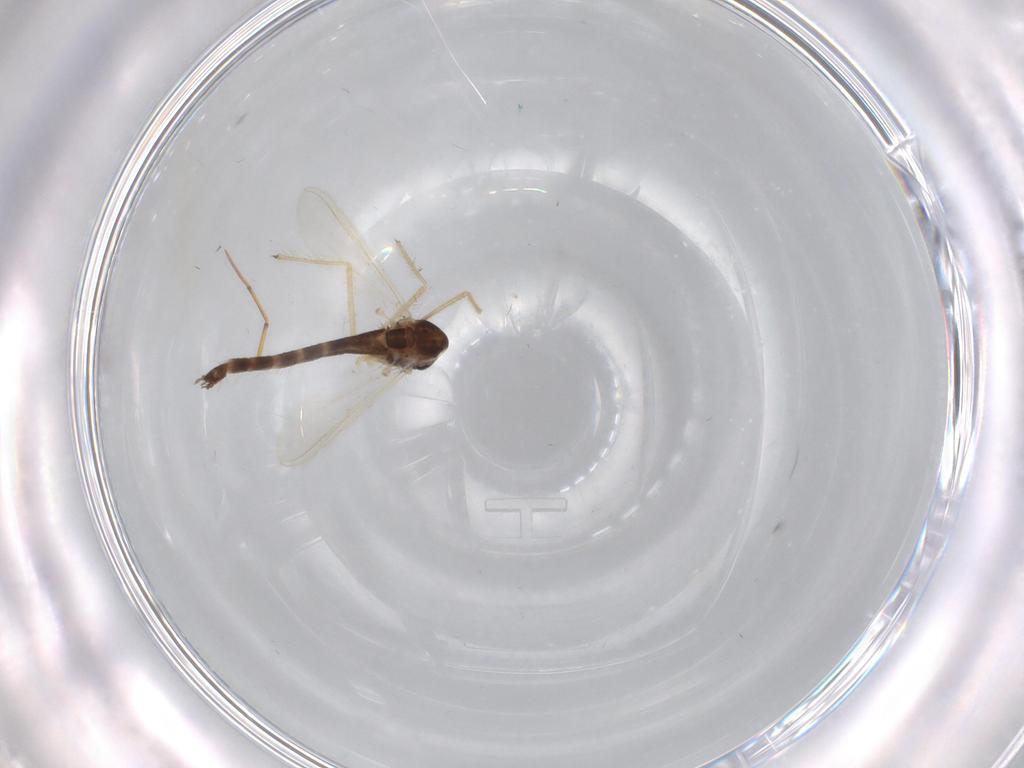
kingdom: Animalia
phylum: Arthropoda
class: Insecta
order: Diptera
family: Chironomidae
